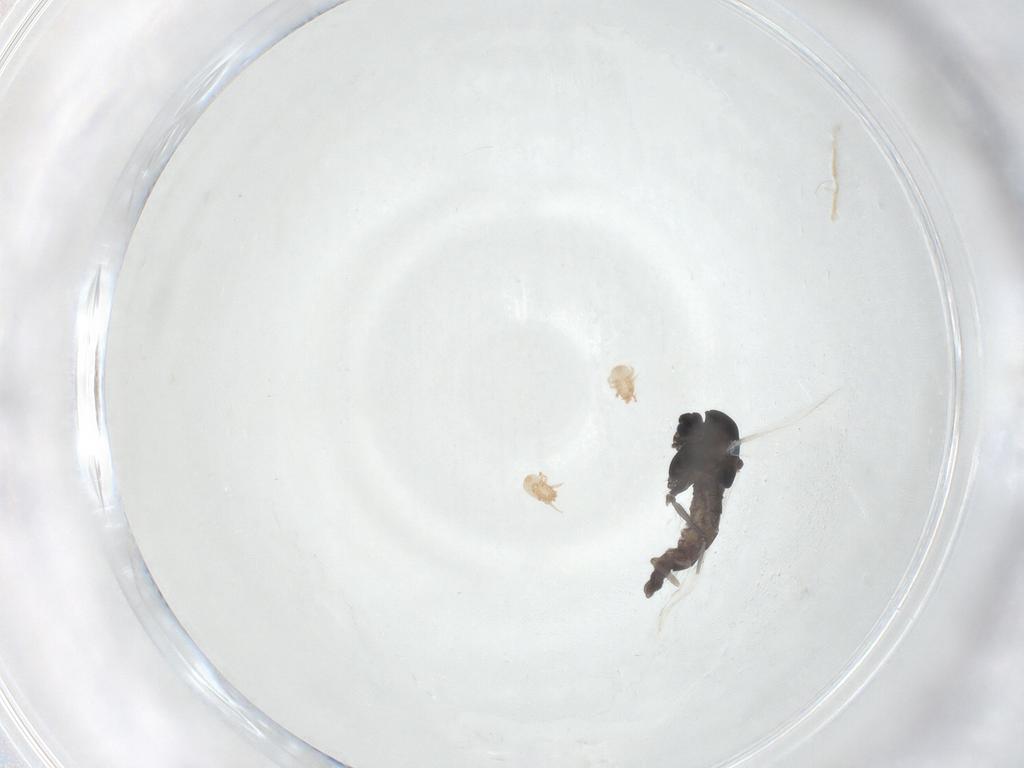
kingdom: Animalia
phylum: Arthropoda
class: Insecta
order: Diptera
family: Chironomidae
